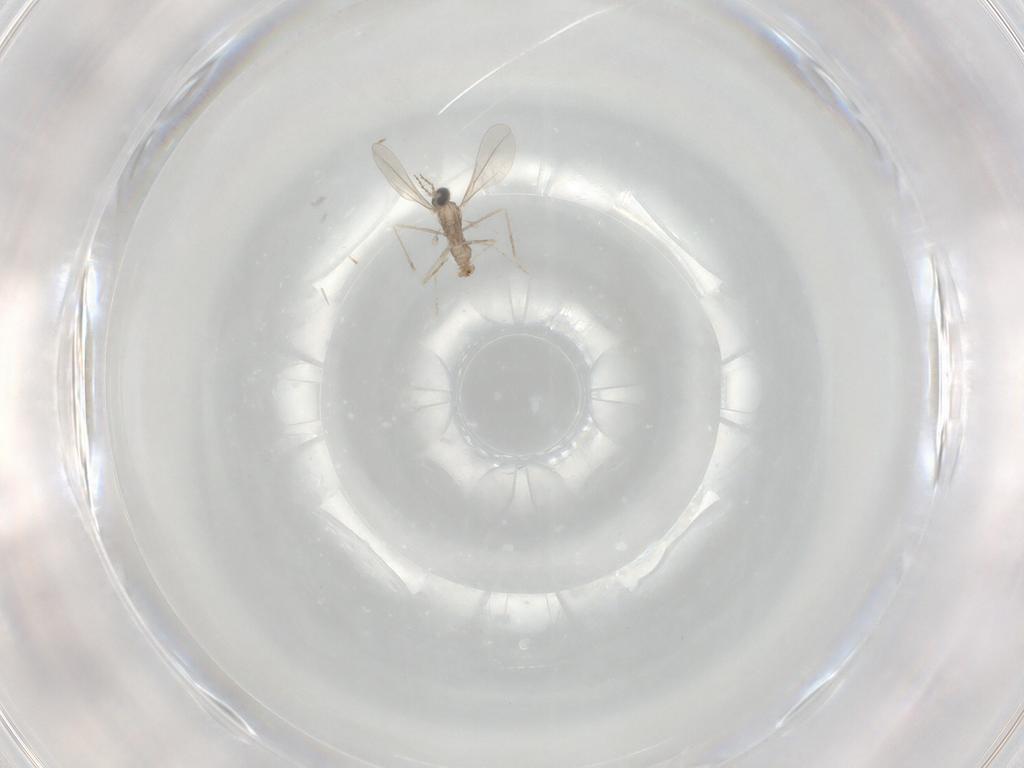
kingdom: Animalia
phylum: Arthropoda
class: Insecta
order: Diptera
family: Cecidomyiidae
